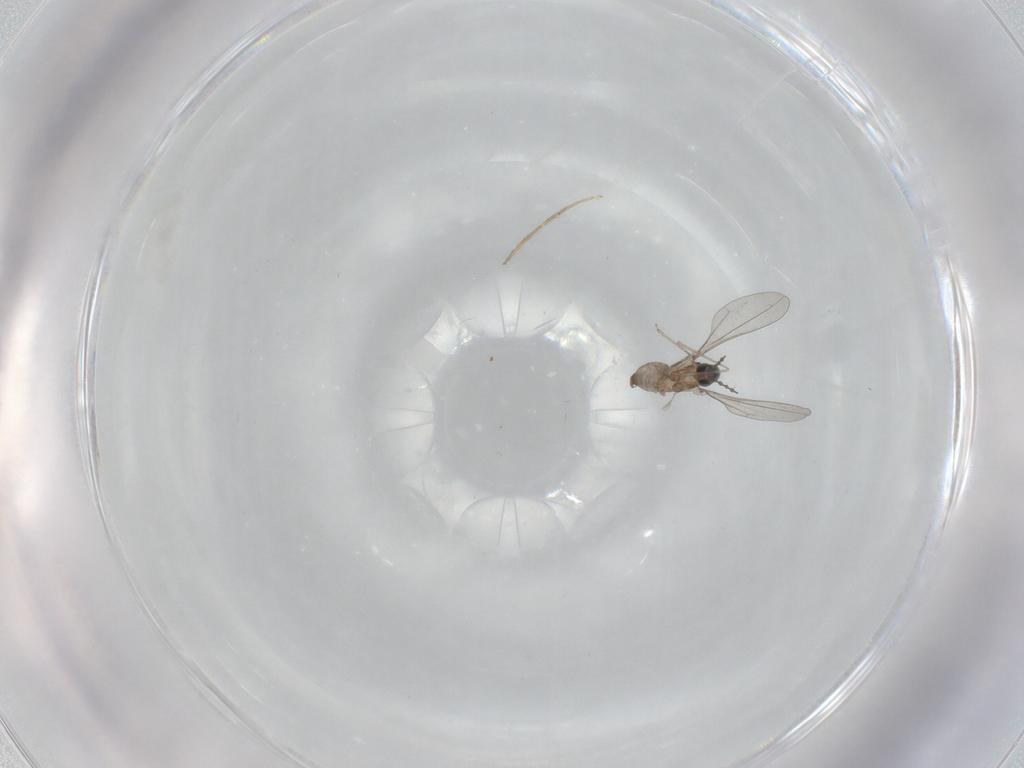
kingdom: Animalia
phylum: Arthropoda
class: Insecta
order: Diptera
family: Cecidomyiidae
